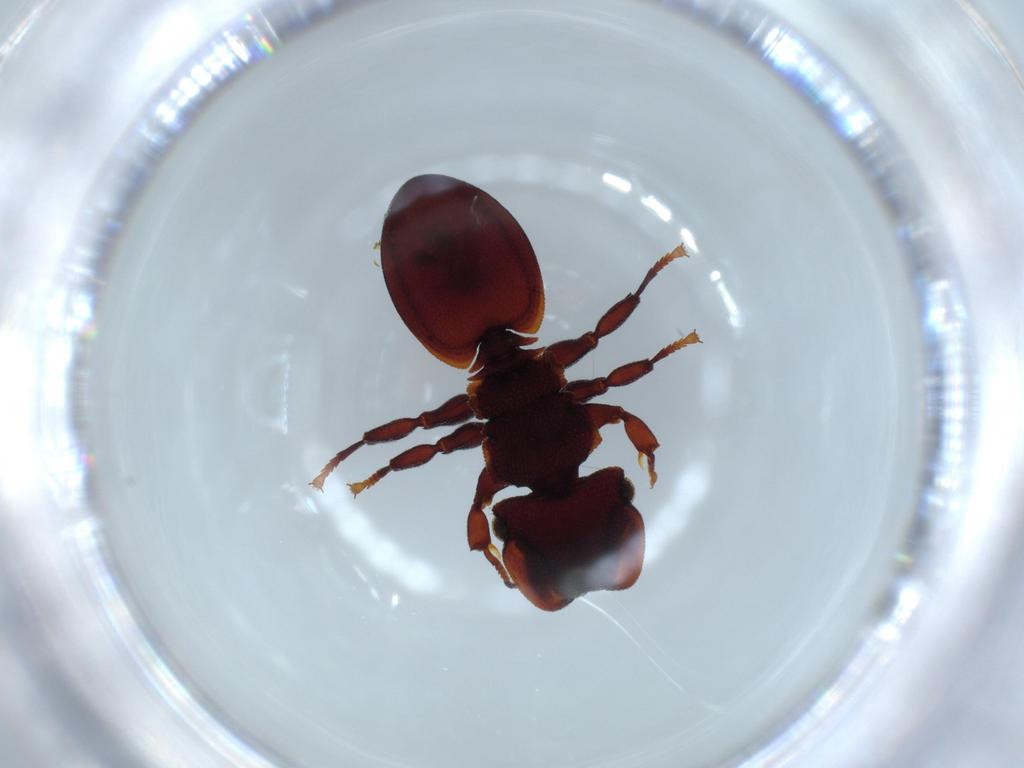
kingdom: Animalia
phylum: Arthropoda
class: Insecta
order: Hymenoptera
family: Formicidae
